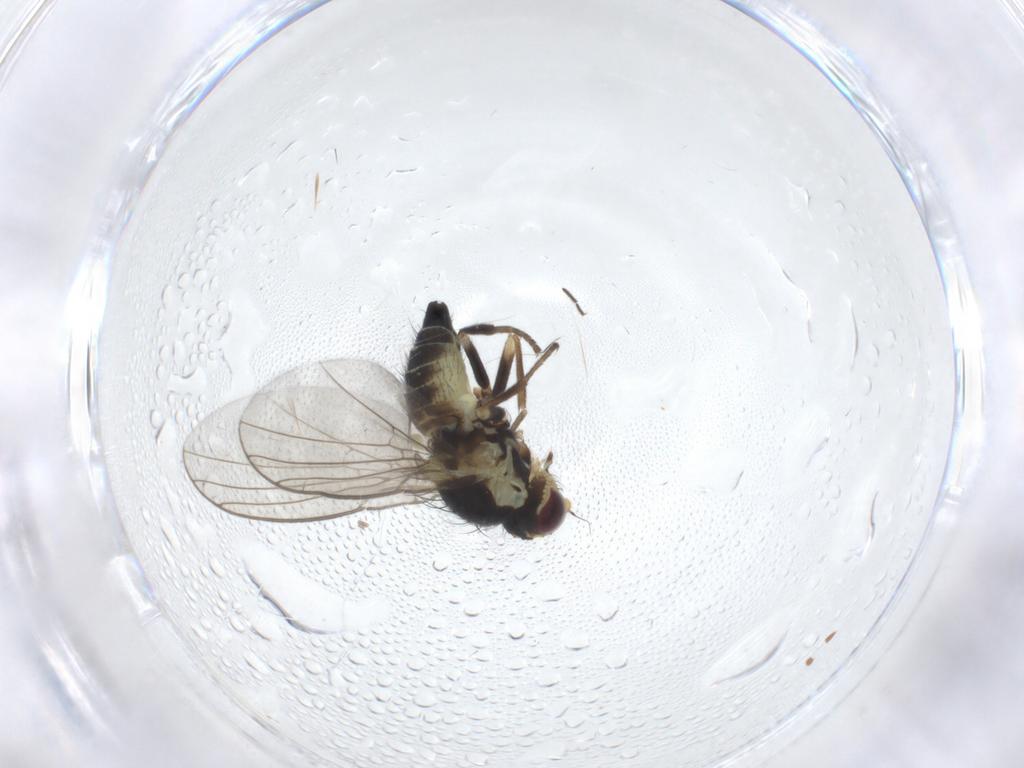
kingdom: Animalia
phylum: Arthropoda
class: Insecta
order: Diptera
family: Agromyzidae
